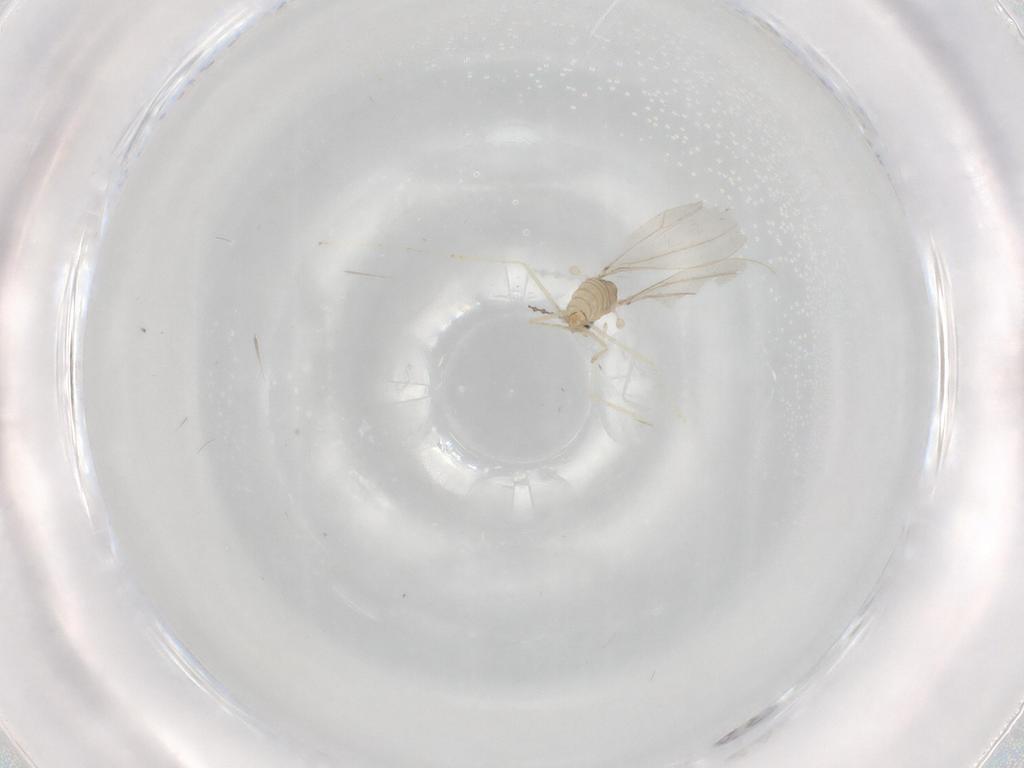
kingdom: Animalia
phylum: Arthropoda
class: Insecta
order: Diptera
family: Cecidomyiidae
